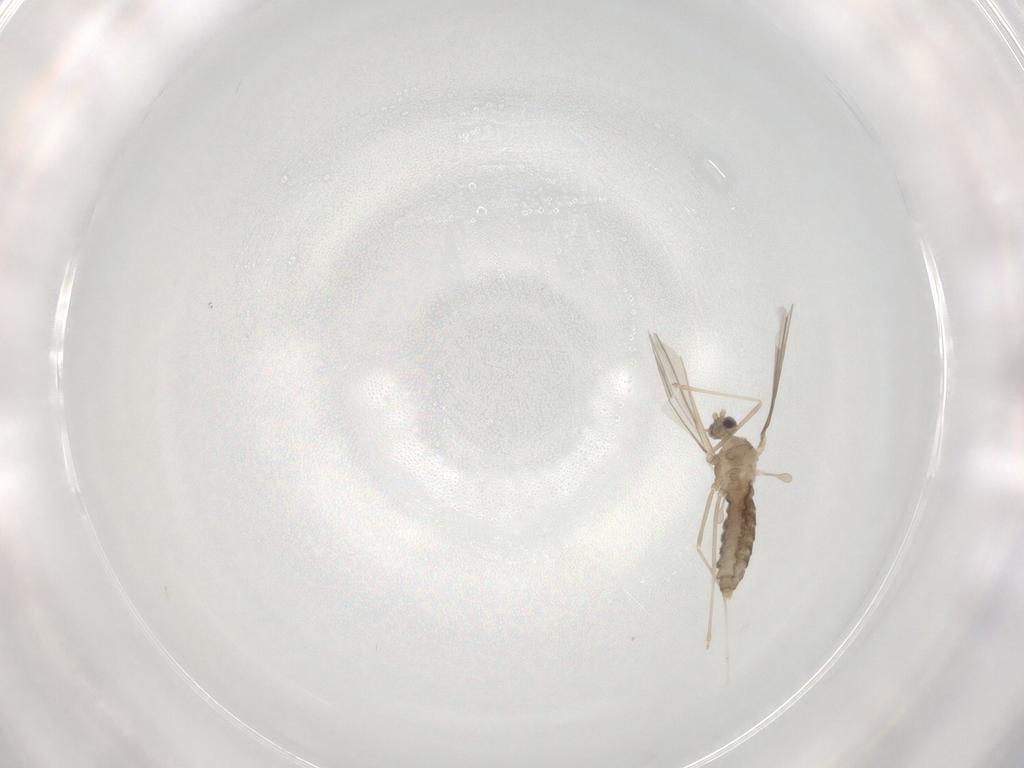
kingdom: Animalia
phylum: Arthropoda
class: Insecta
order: Diptera
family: Cecidomyiidae
